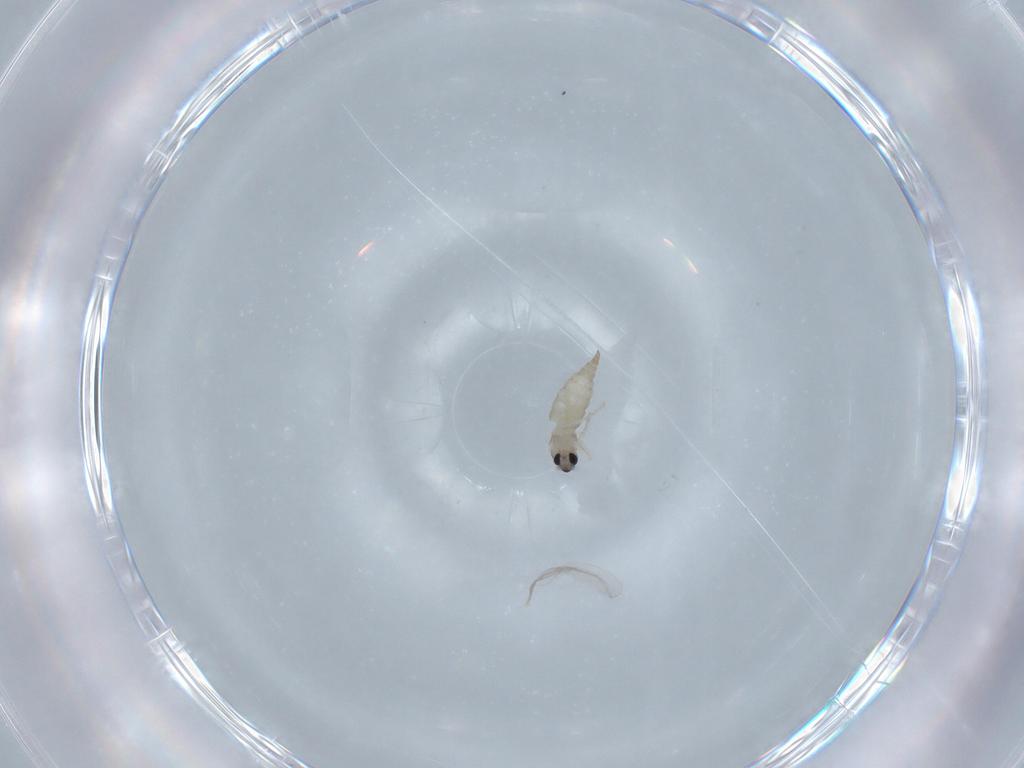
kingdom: Animalia
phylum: Arthropoda
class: Insecta
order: Diptera
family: Cecidomyiidae
